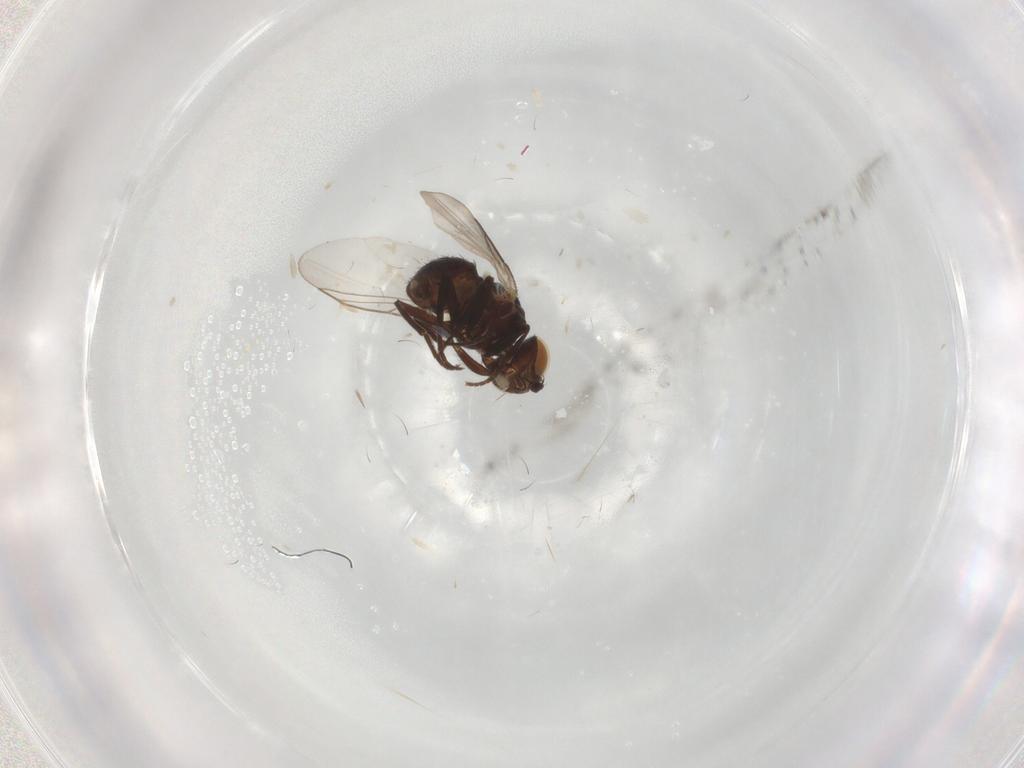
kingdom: Animalia
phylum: Arthropoda
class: Insecta
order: Diptera
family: Agromyzidae
